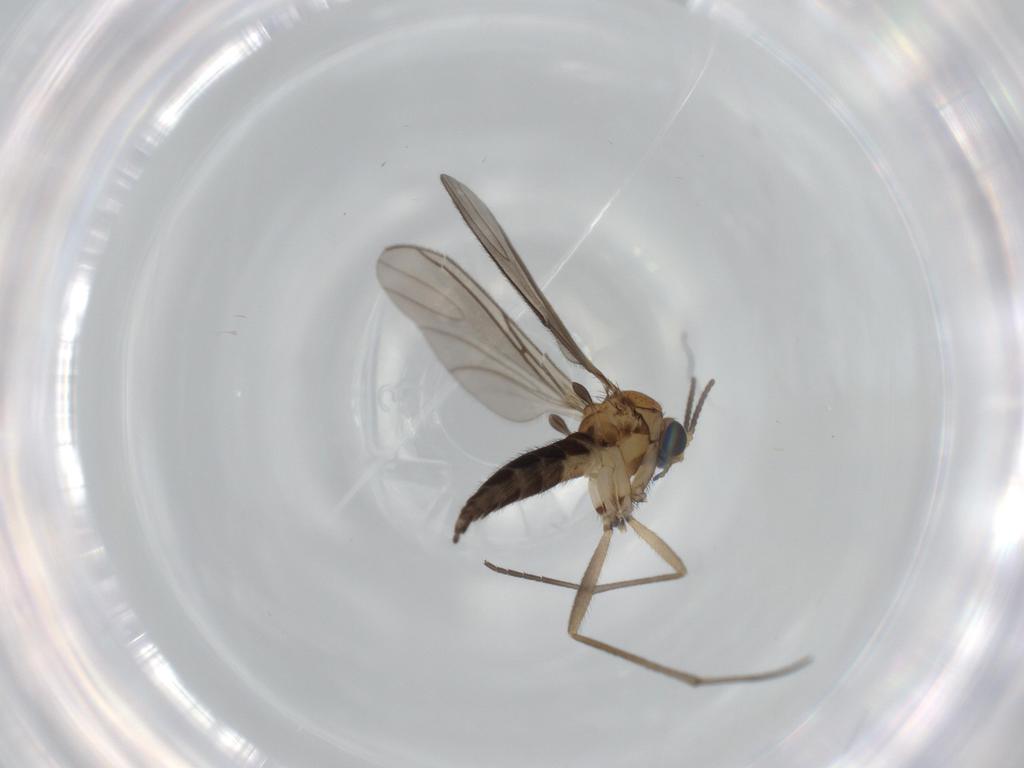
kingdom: Animalia
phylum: Arthropoda
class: Insecta
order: Diptera
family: Sciaridae
